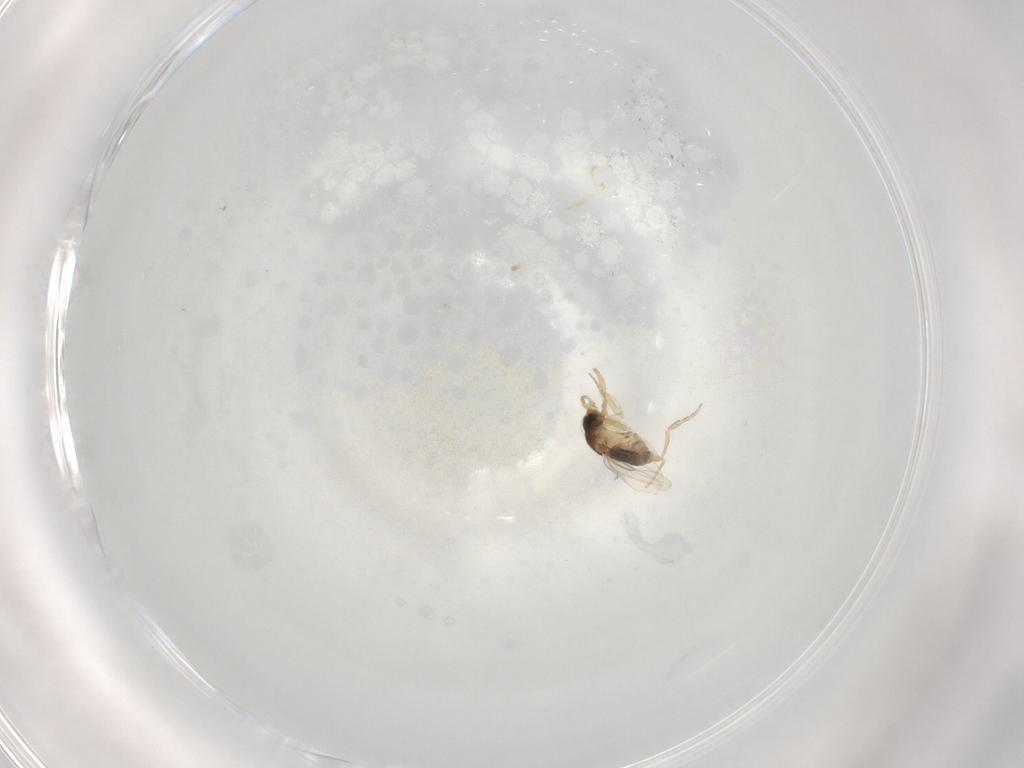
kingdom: Animalia
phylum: Arthropoda
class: Insecta
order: Diptera
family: Phoridae
